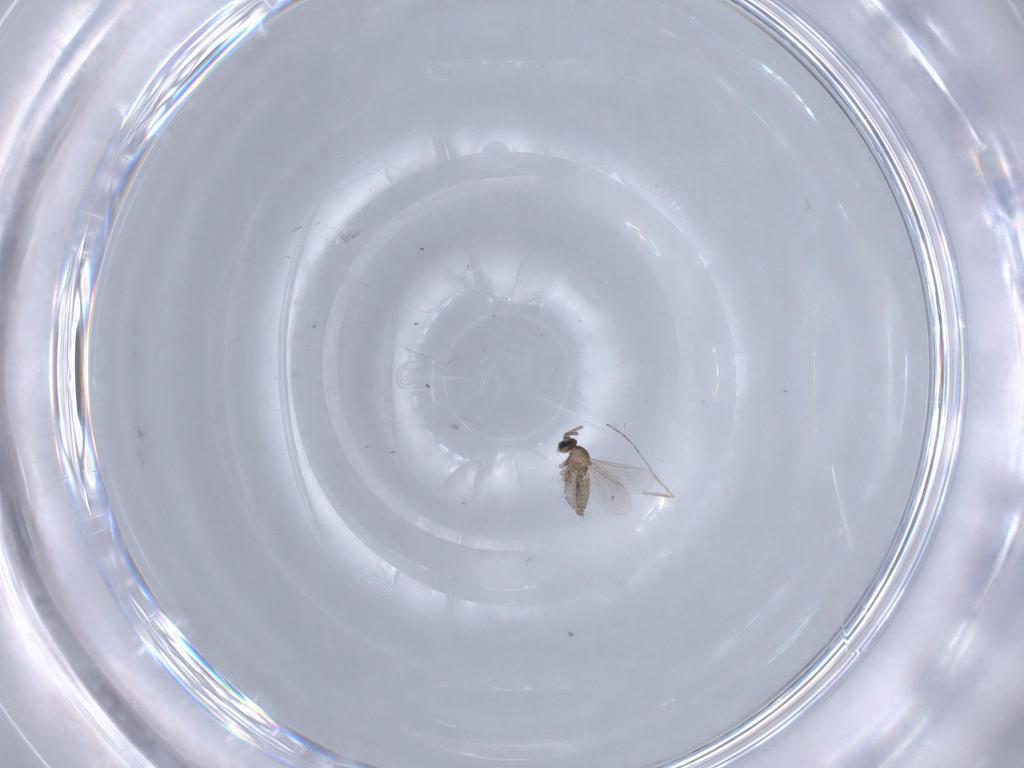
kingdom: Animalia
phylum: Arthropoda
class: Insecta
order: Diptera
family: Cecidomyiidae
